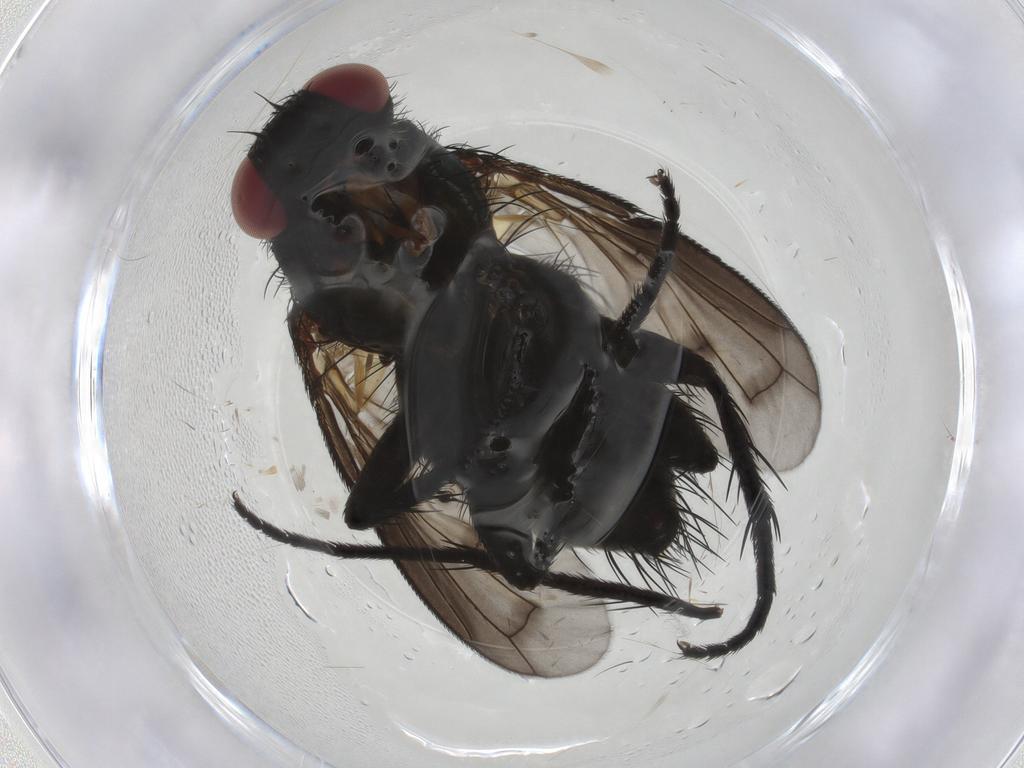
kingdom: Animalia
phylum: Arthropoda
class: Insecta
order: Diptera
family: Tachinidae
